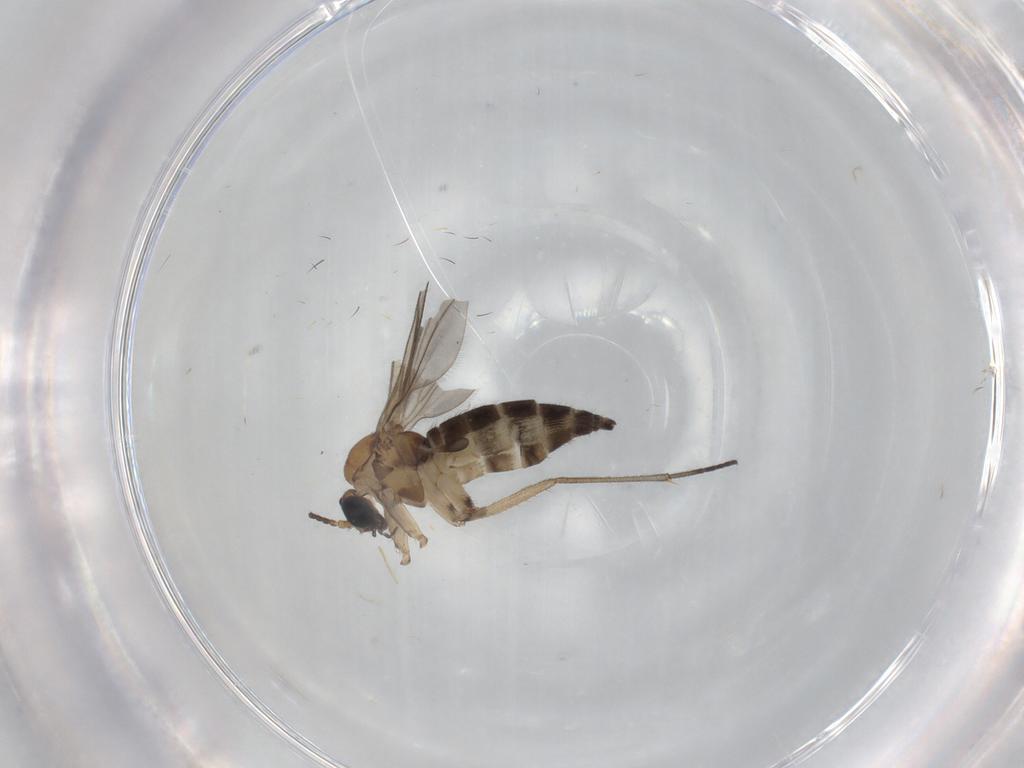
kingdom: Animalia
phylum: Arthropoda
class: Insecta
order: Diptera
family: Sciaridae
